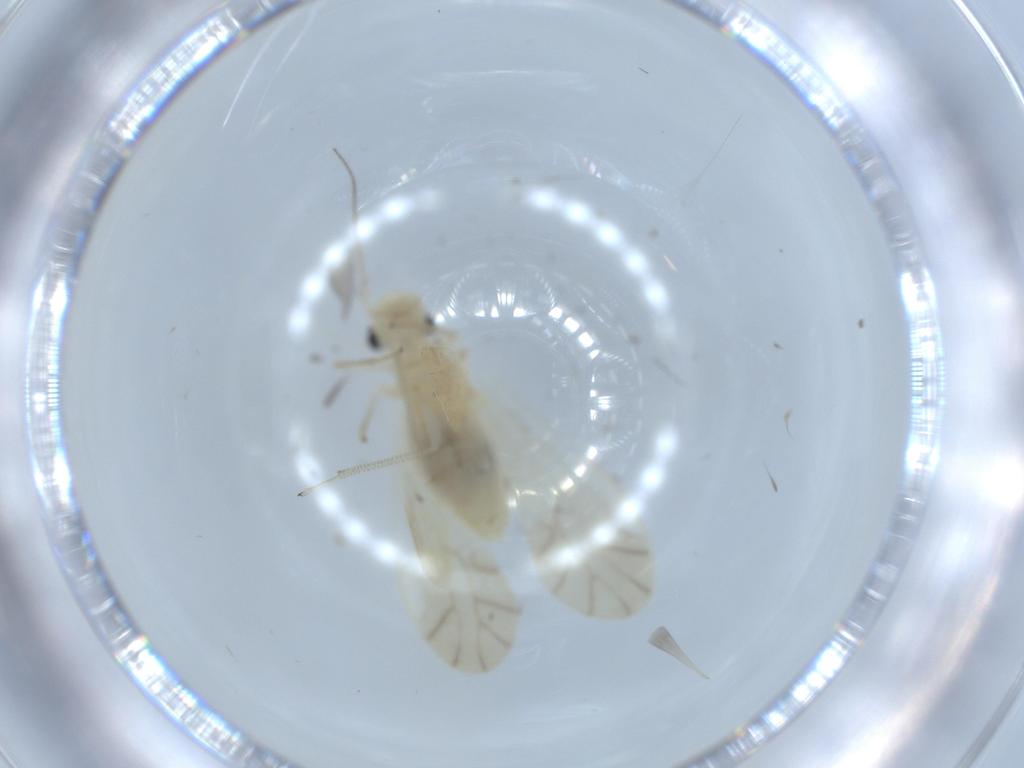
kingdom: Animalia
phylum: Arthropoda
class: Insecta
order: Psocodea
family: Caeciliusidae
